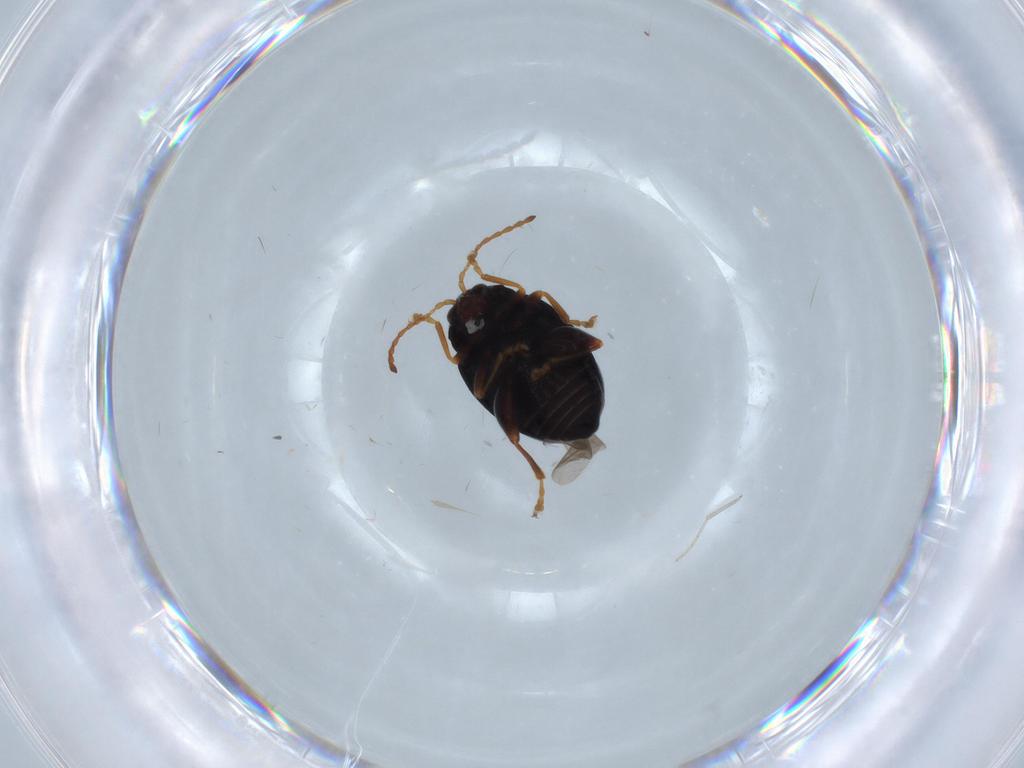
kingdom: Animalia
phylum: Arthropoda
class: Insecta
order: Coleoptera
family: Chrysomelidae
